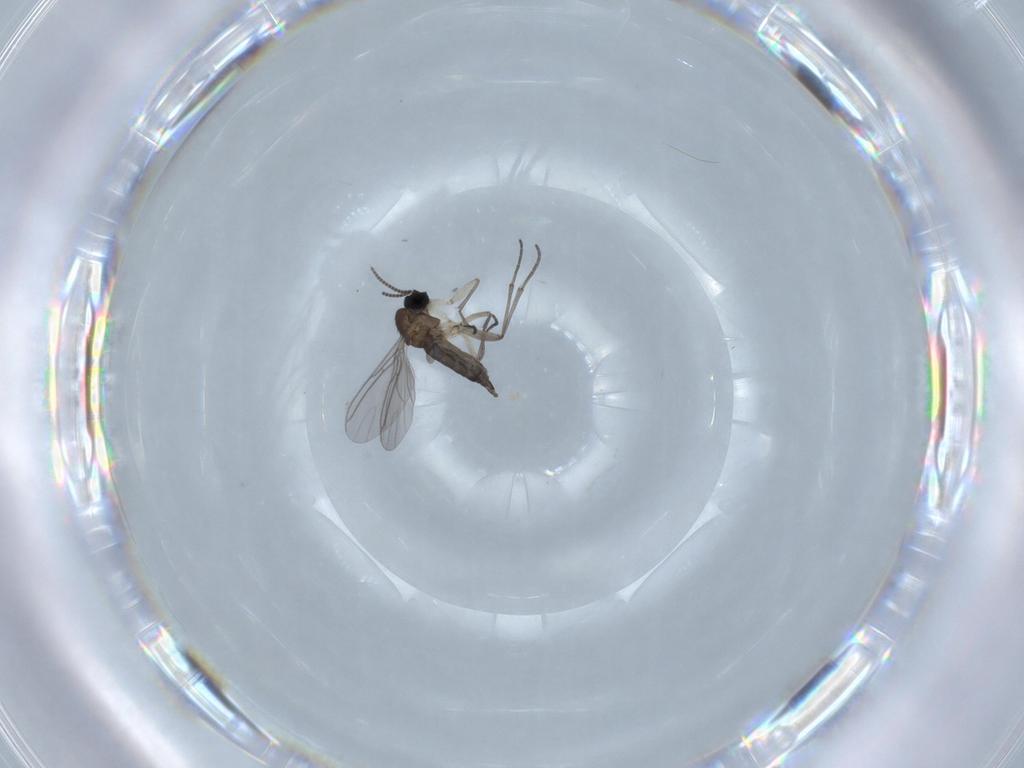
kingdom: Animalia
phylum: Arthropoda
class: Insecta
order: Diptera
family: Sciaridae
